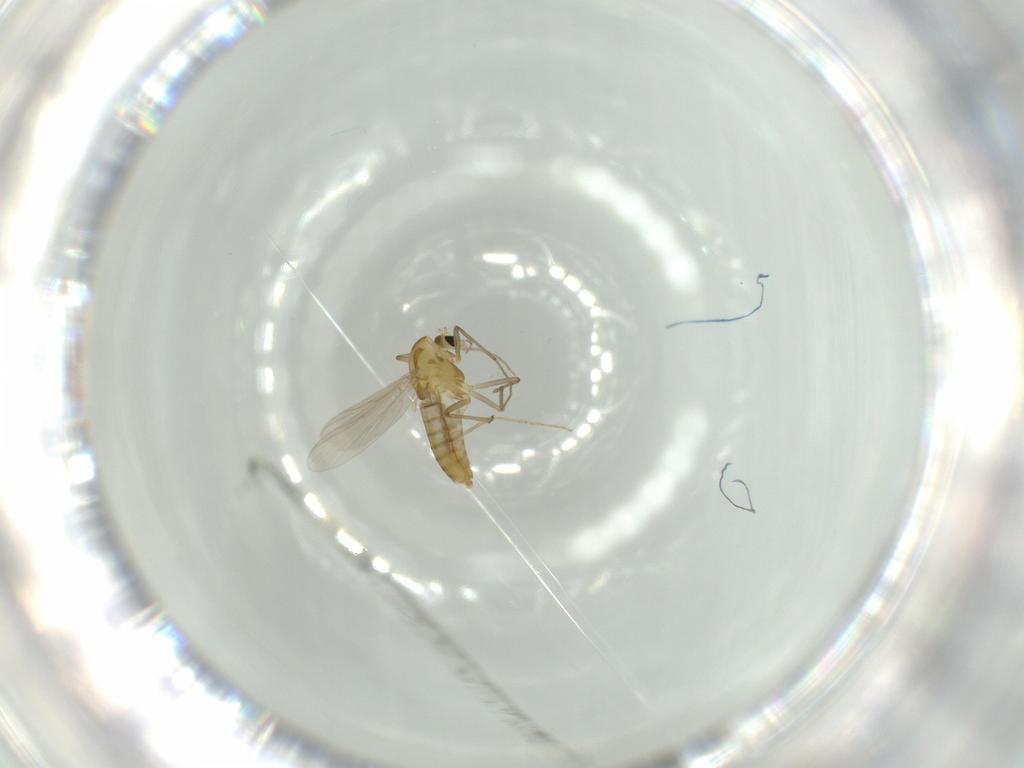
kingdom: Animalia
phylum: Arthropoda
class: Insecta
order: Diptera
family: Chironomidae
